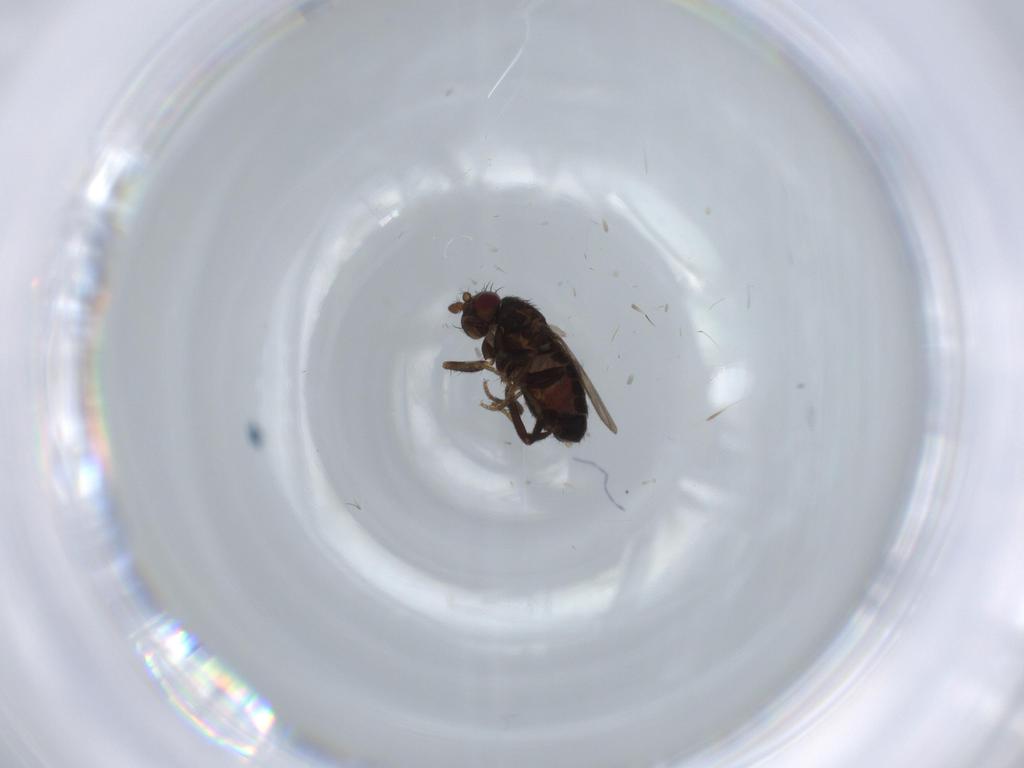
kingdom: Animalia
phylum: Arthropoda
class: Insecta
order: Diptera
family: Sphaeroceridae
